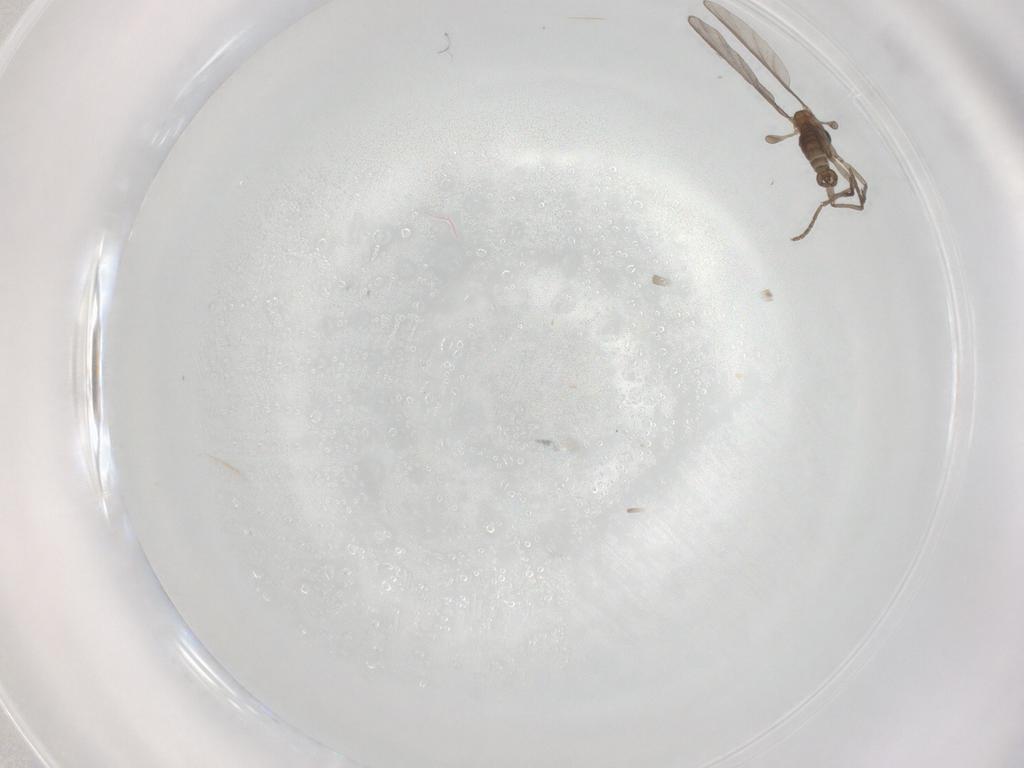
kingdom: Animalia
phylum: Arthropoda
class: Insecta
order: Diptera
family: Sciaridae
